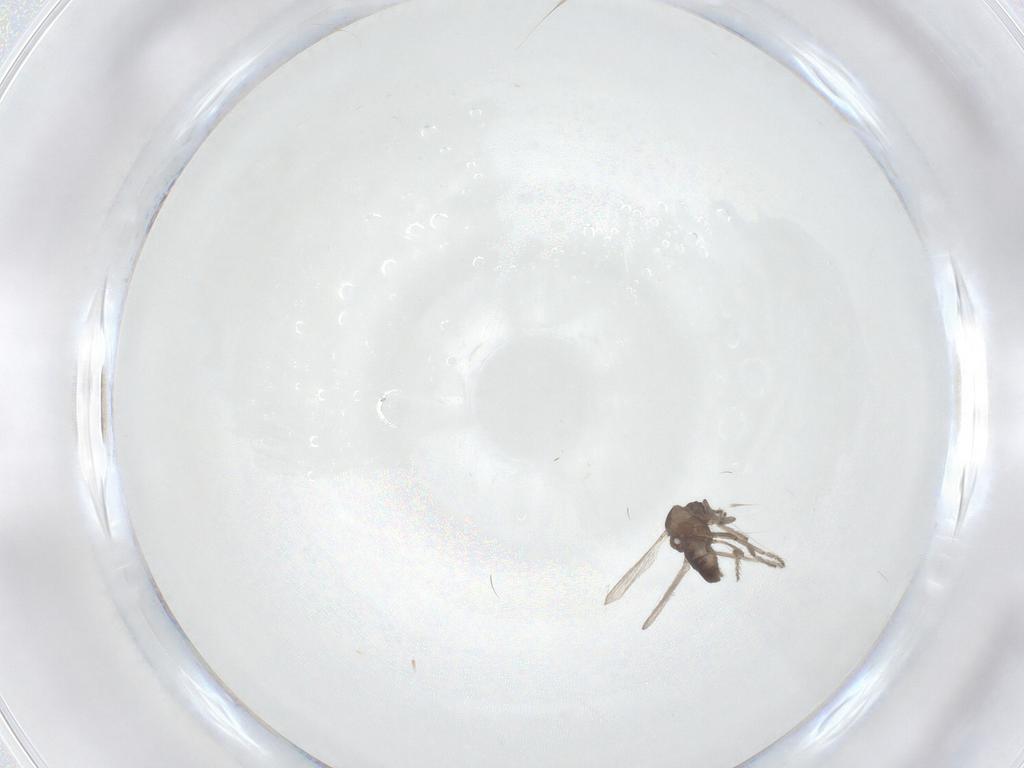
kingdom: Animalia
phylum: Arthropoda
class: Insecta
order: Diptera
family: Ceratopogonidae
